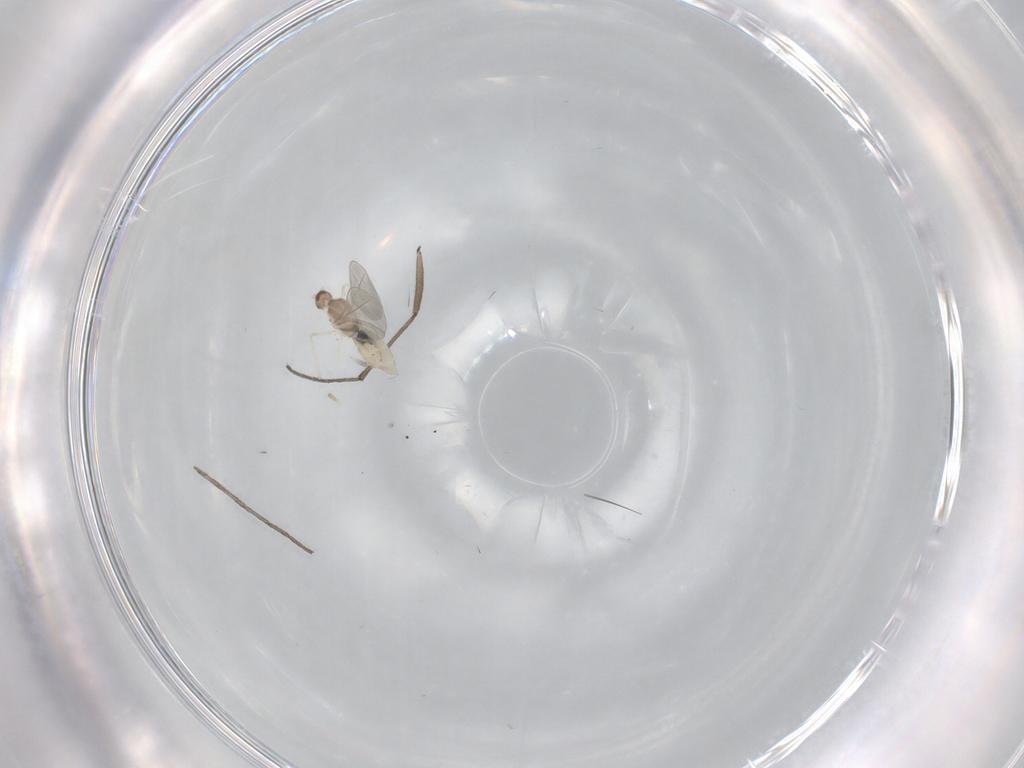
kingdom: Animalia
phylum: Arthropoda
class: Insecta
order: Diptera
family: Cecidomyiidae
